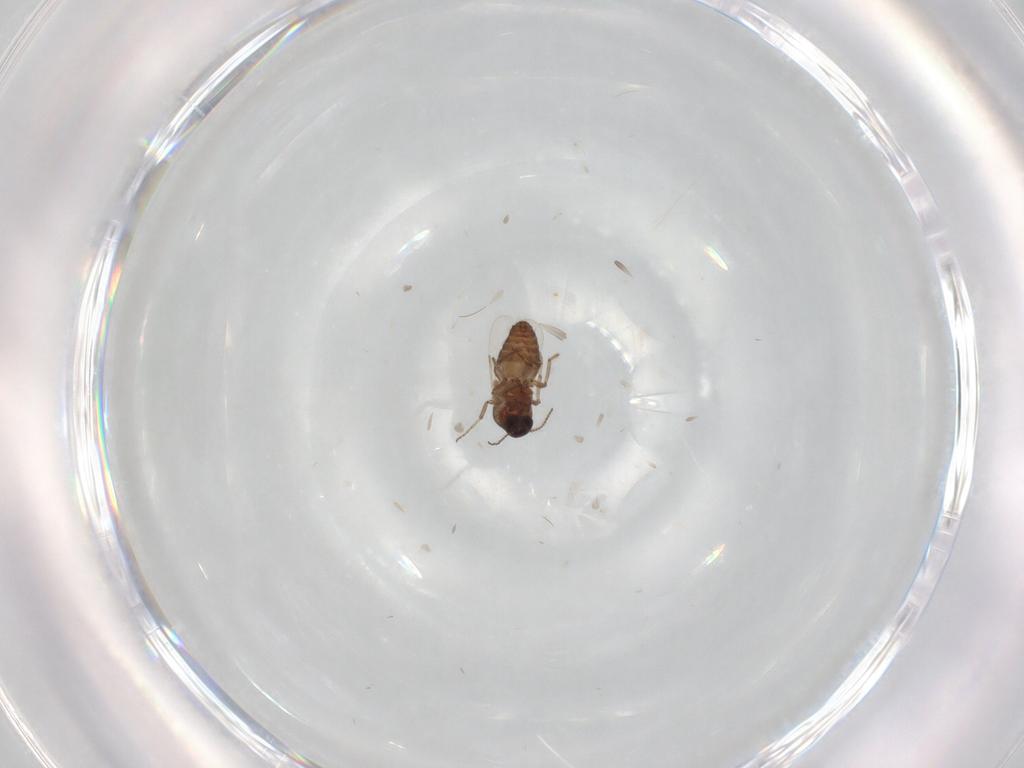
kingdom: Animalia
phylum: Arthropoda
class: Insecta
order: Diptera
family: Ceratopogonidae
